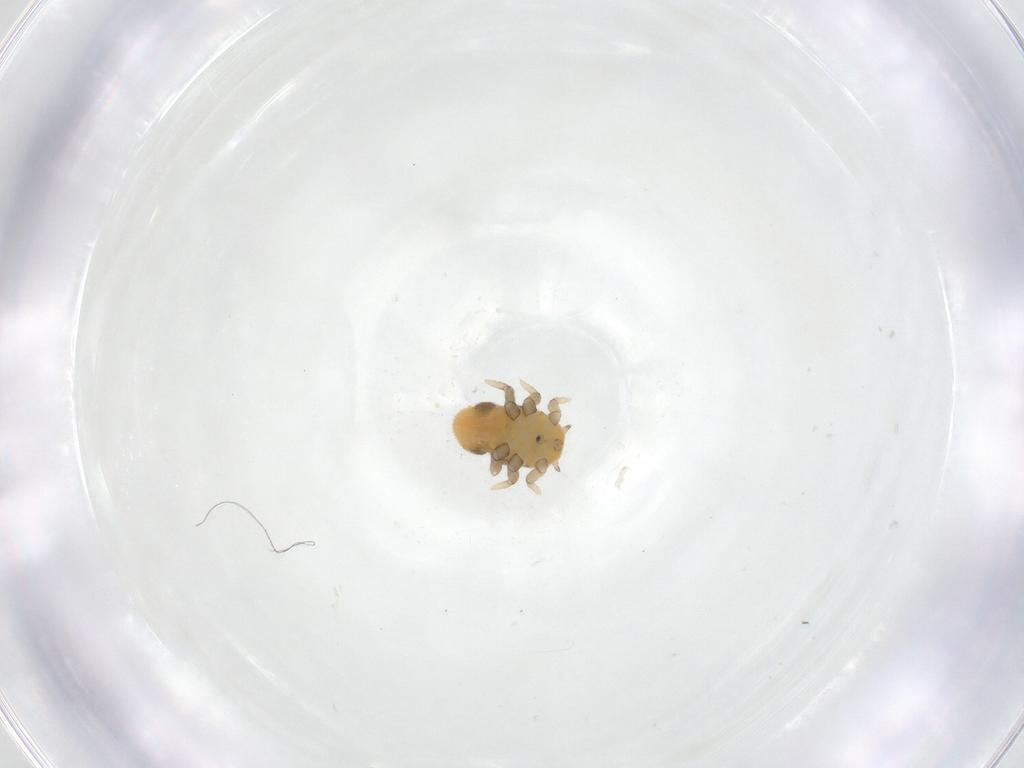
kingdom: Animalia
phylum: Arthropoda
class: Insecta
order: Hemiptera
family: Triozidae
